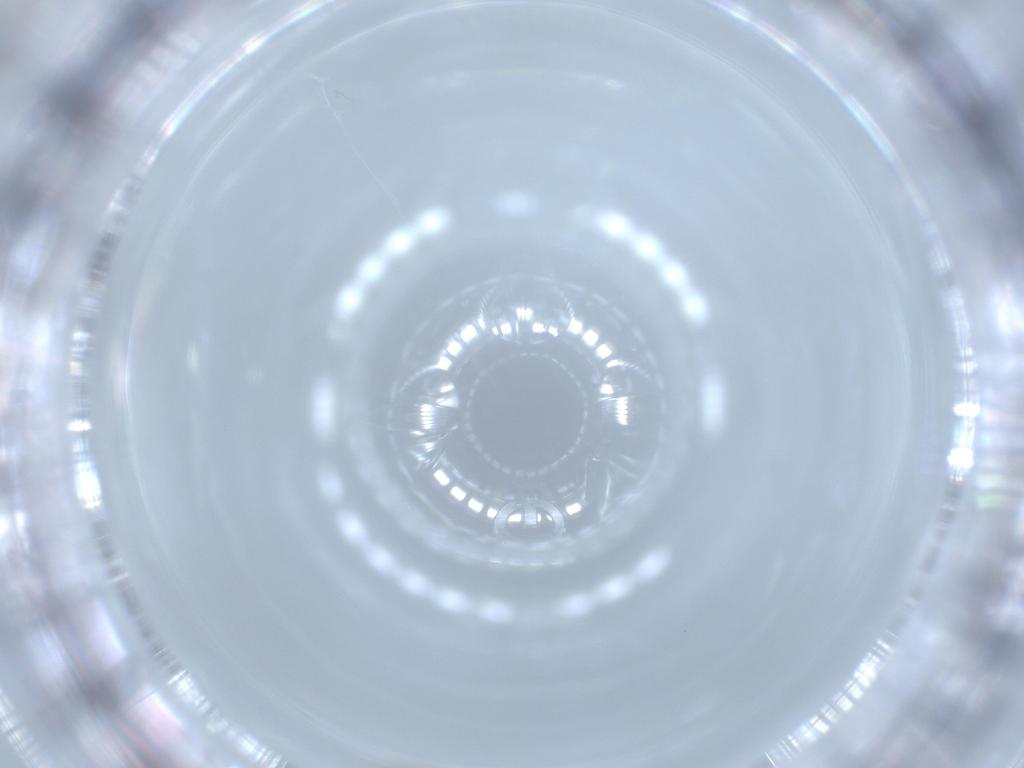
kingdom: Animalia
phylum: Arthropoda
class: Insecta
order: Hemiptera
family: Aleyrodidae
